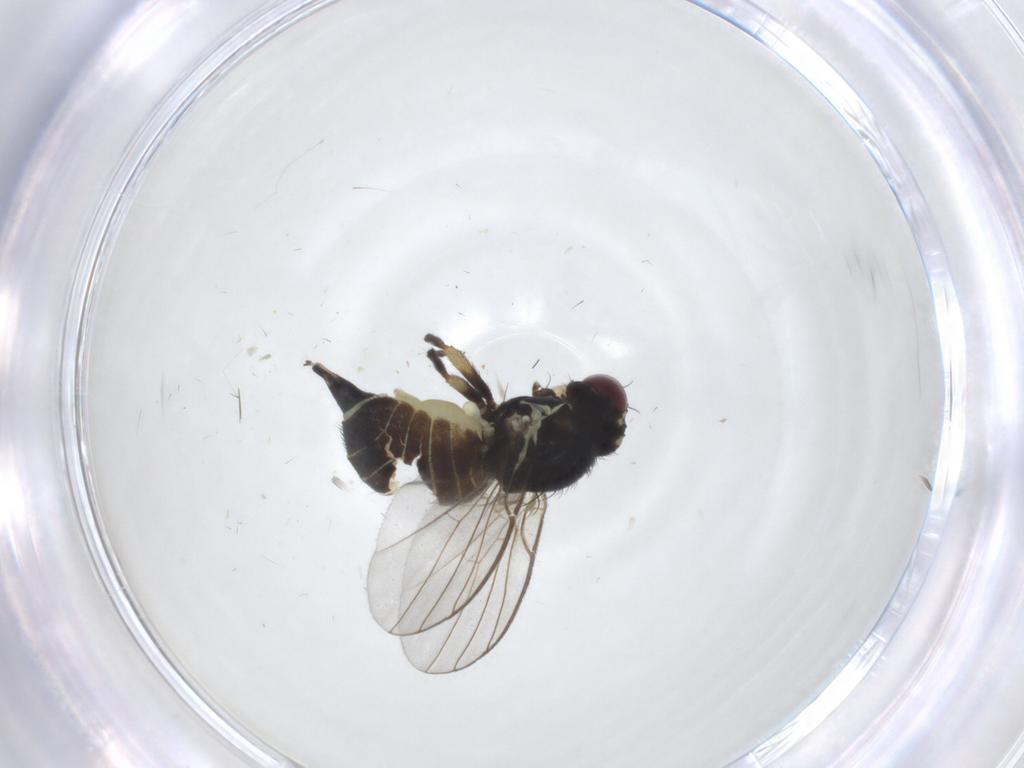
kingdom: Animalia
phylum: Arthropoda
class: Insecta
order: Diptera
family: Agromyzidae
